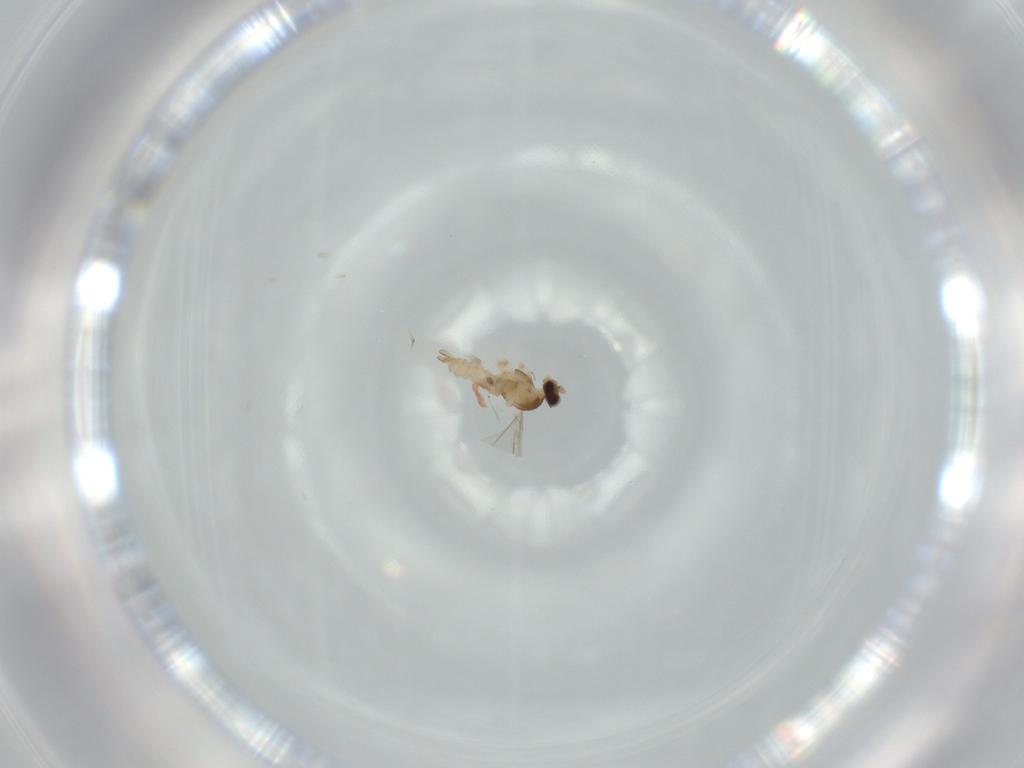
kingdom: Animalia
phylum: Arthropoda
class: Insecta
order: Diptera
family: Cecidomyiidae
